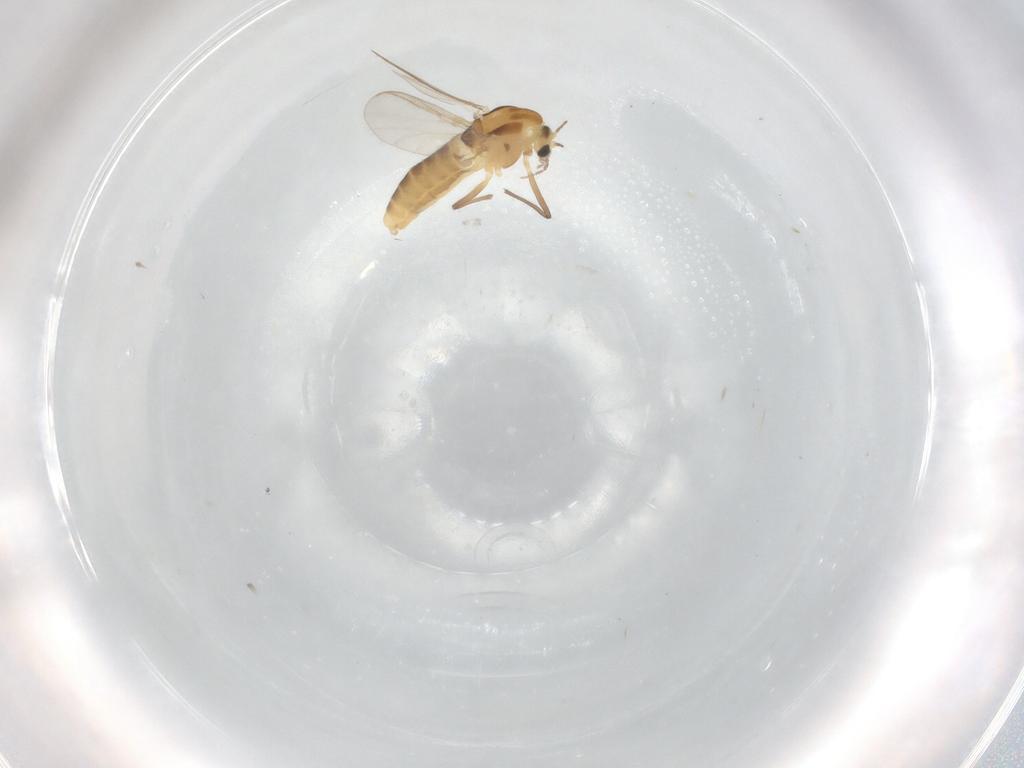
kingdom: Animalia
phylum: Arthropoda
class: Insecta
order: Diptera
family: Chironomidae
